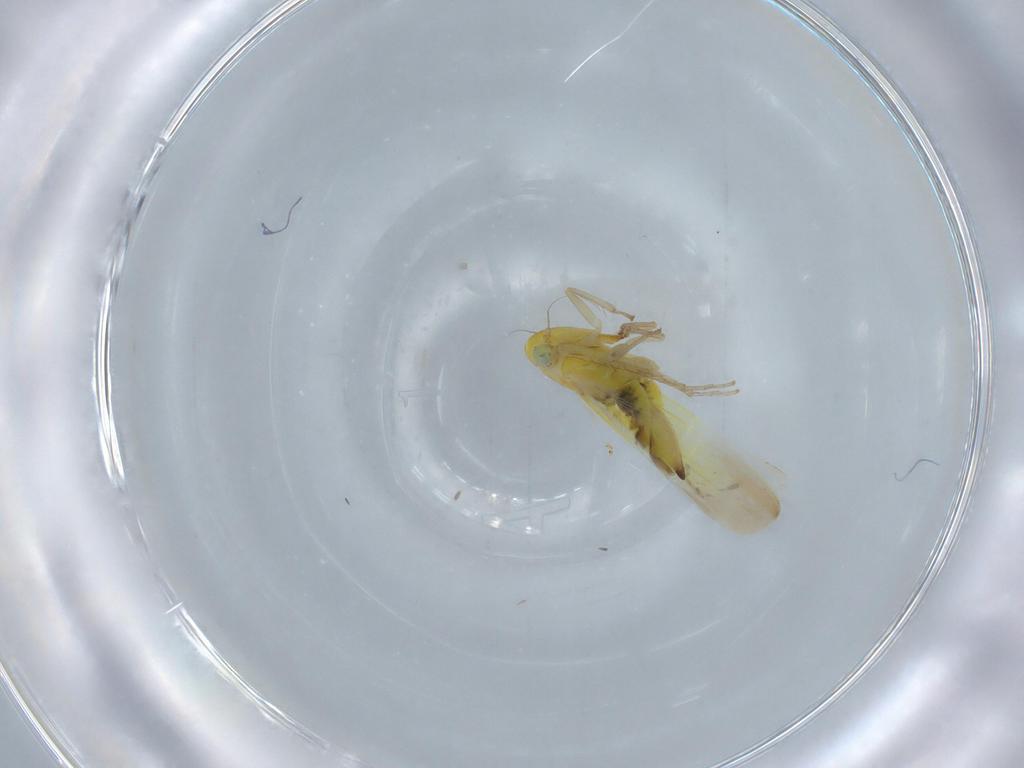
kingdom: Animalia
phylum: Arthropoda
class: Insecta
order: Hemiptera
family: Cicadellidae
